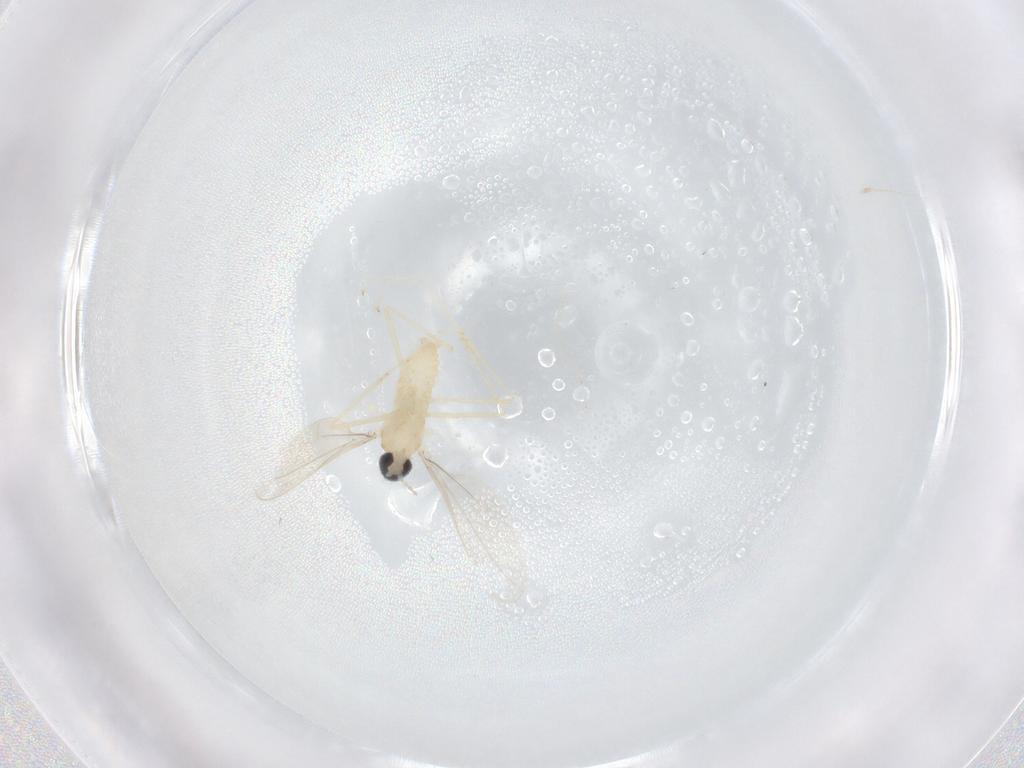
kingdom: Animalia
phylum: Arthropoda
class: Insecta
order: Diptera
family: Cecidomyiidae
